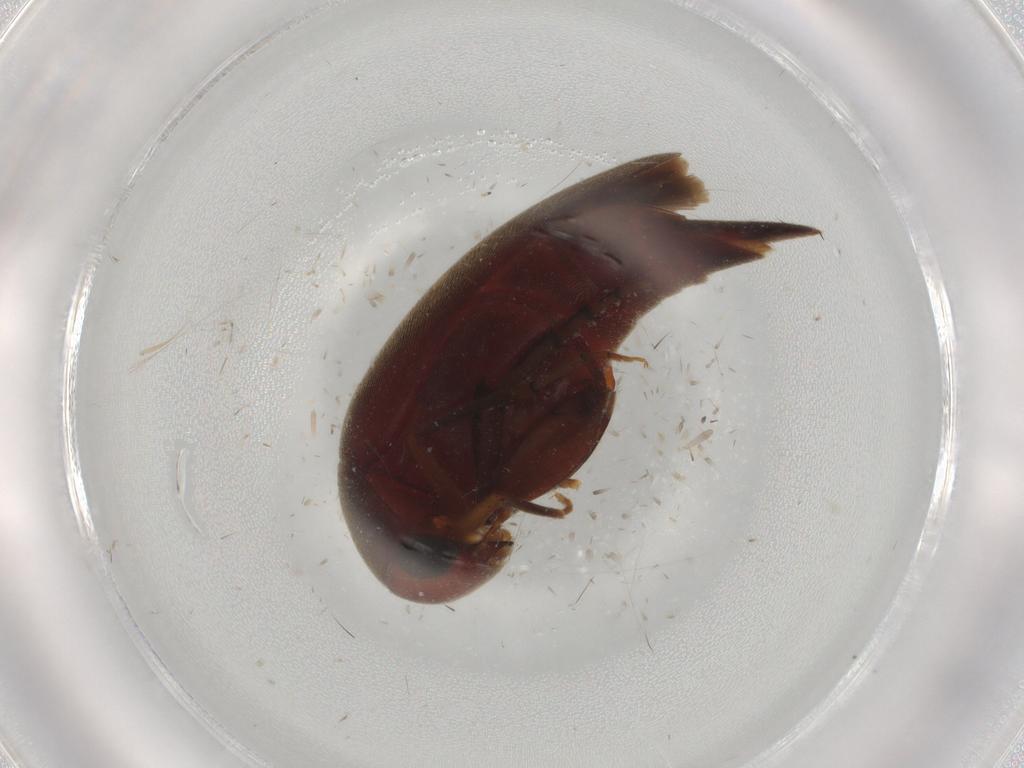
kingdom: Animalia
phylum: Arthropoda
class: Insecta
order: Coleoptera
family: Mordellidae
